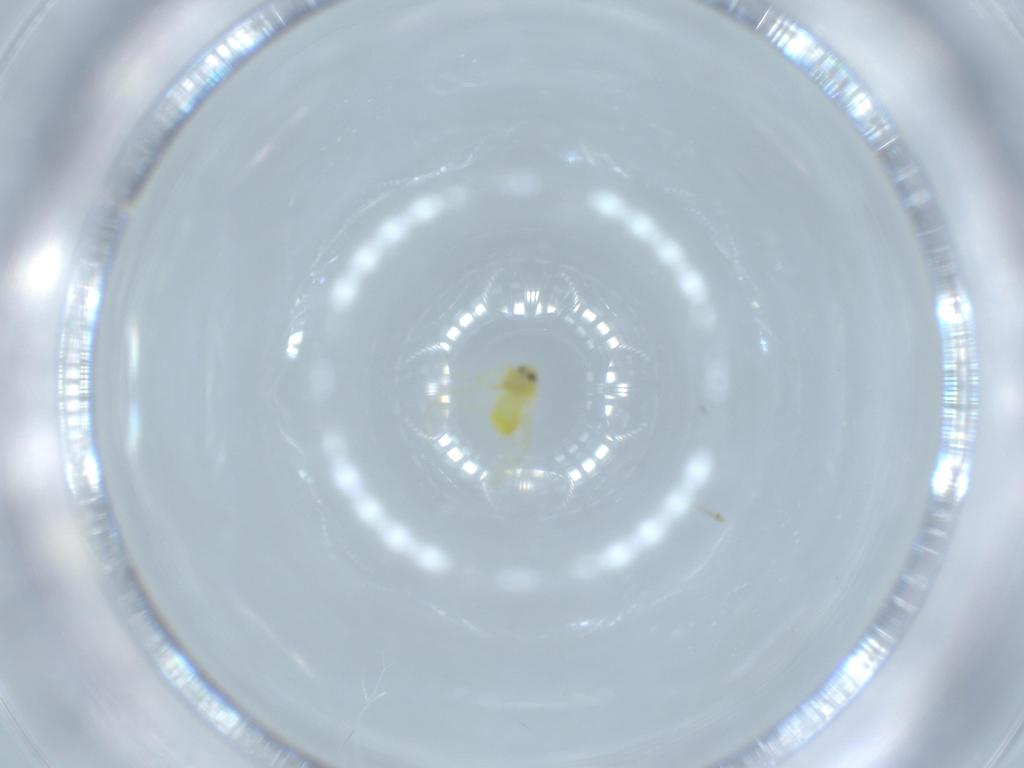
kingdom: Animalia
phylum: Arthropoda
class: Insecta
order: Hemiptera
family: Aleyrodidae
